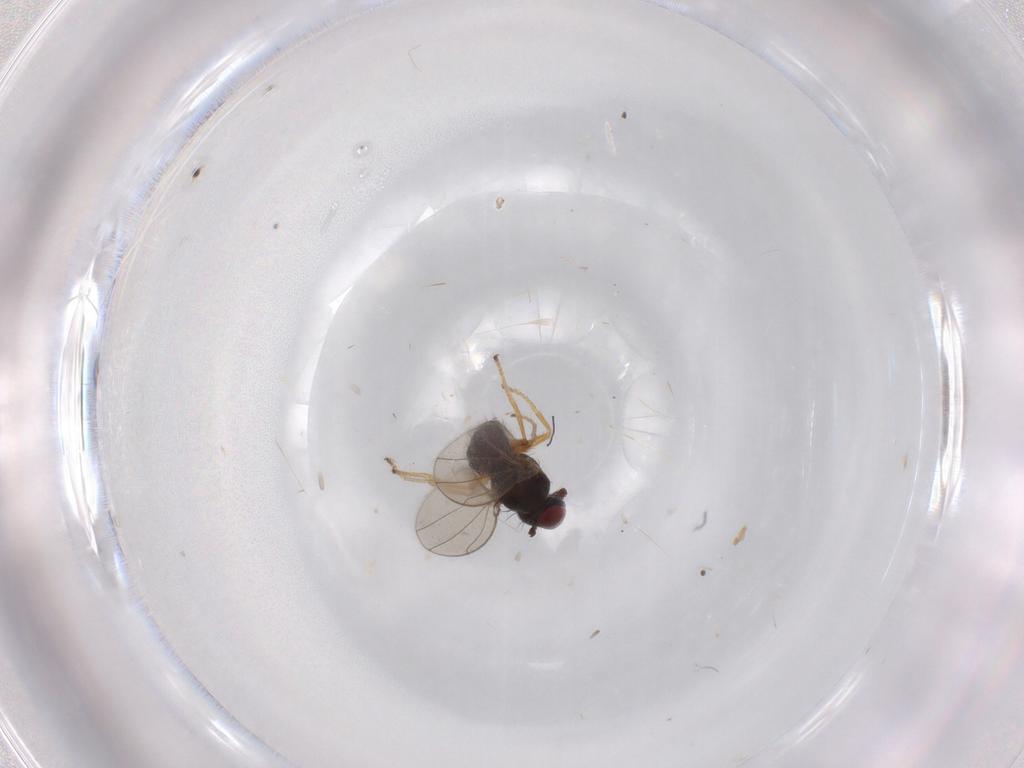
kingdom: Animalia
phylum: Arthropoda
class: Insecta
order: Diptera
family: Ephydridae
